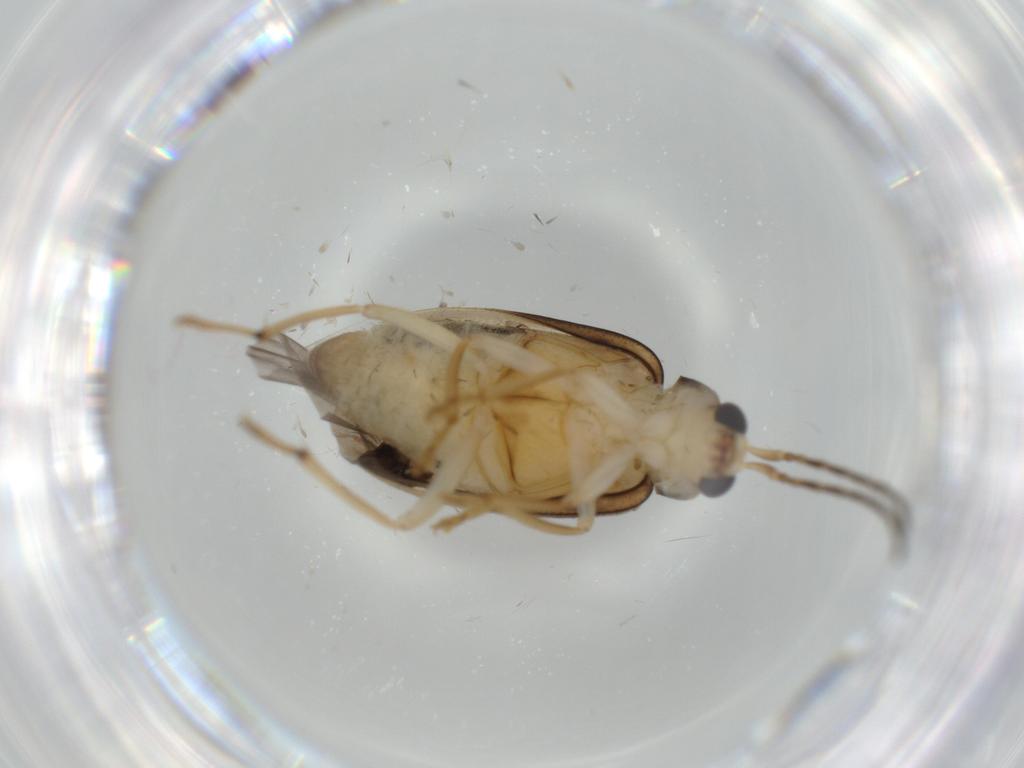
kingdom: Animalia
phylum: Arthropoda
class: Insecta
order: Coleoptera
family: Chrysomelidae
